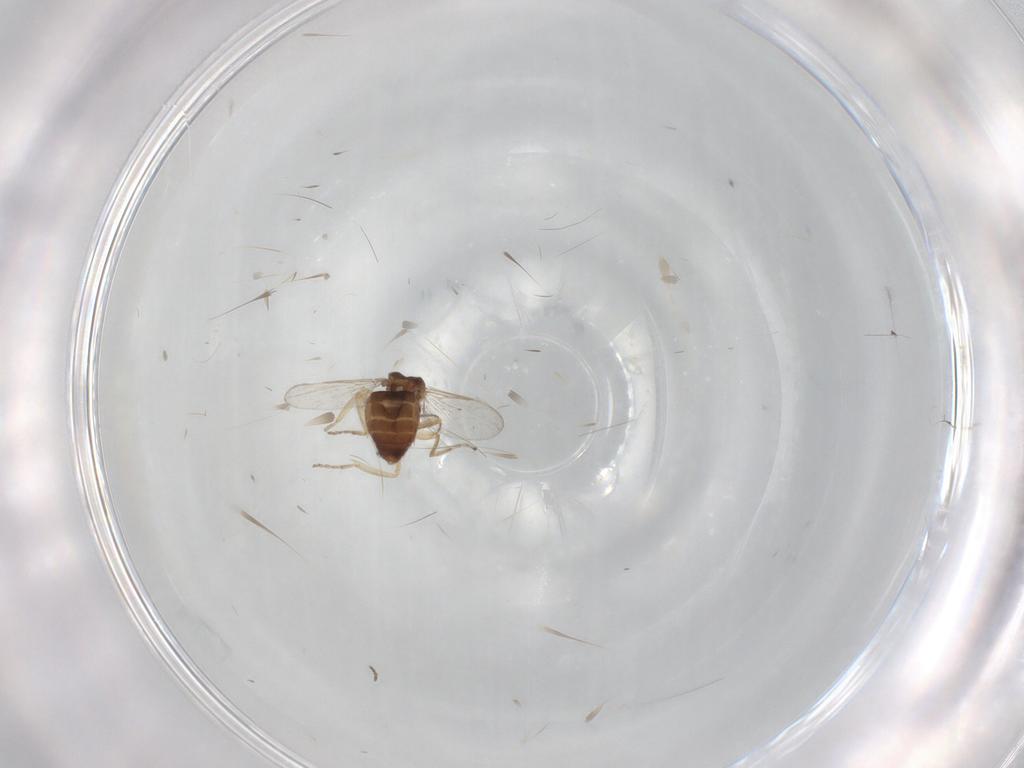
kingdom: Animalia
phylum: Arthropoda
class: Insecta
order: Diptera
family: Ceratopogonidae
